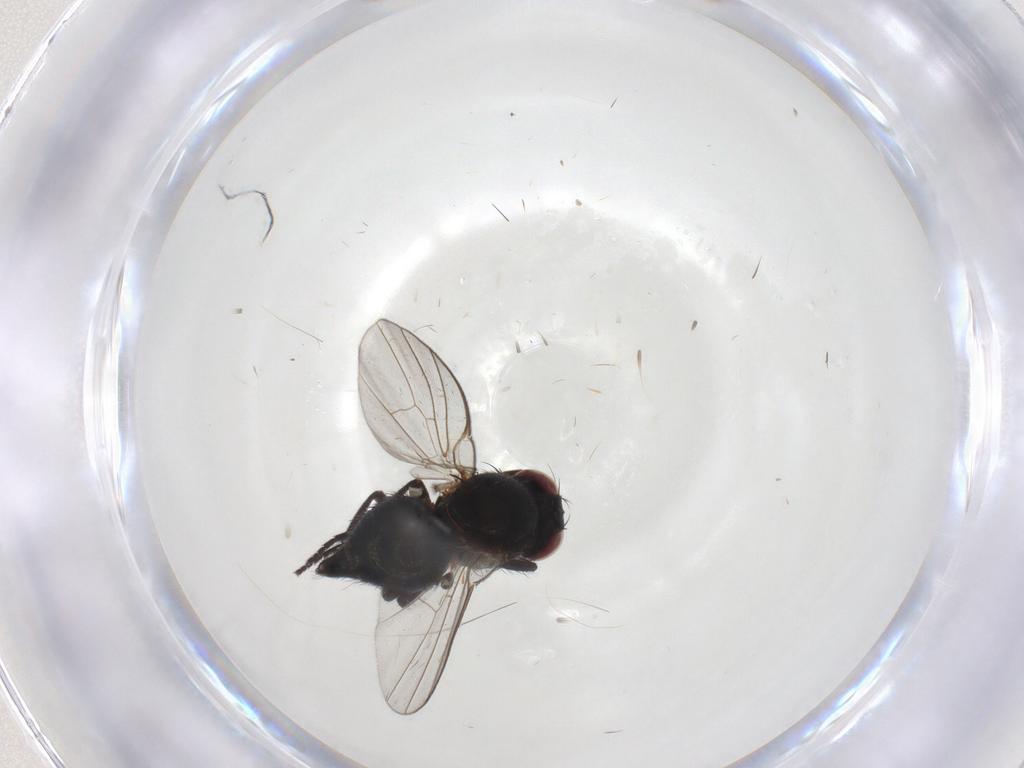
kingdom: Animalia
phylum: Arthropoda
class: Insecta
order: Diptera
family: Agromyzidae
